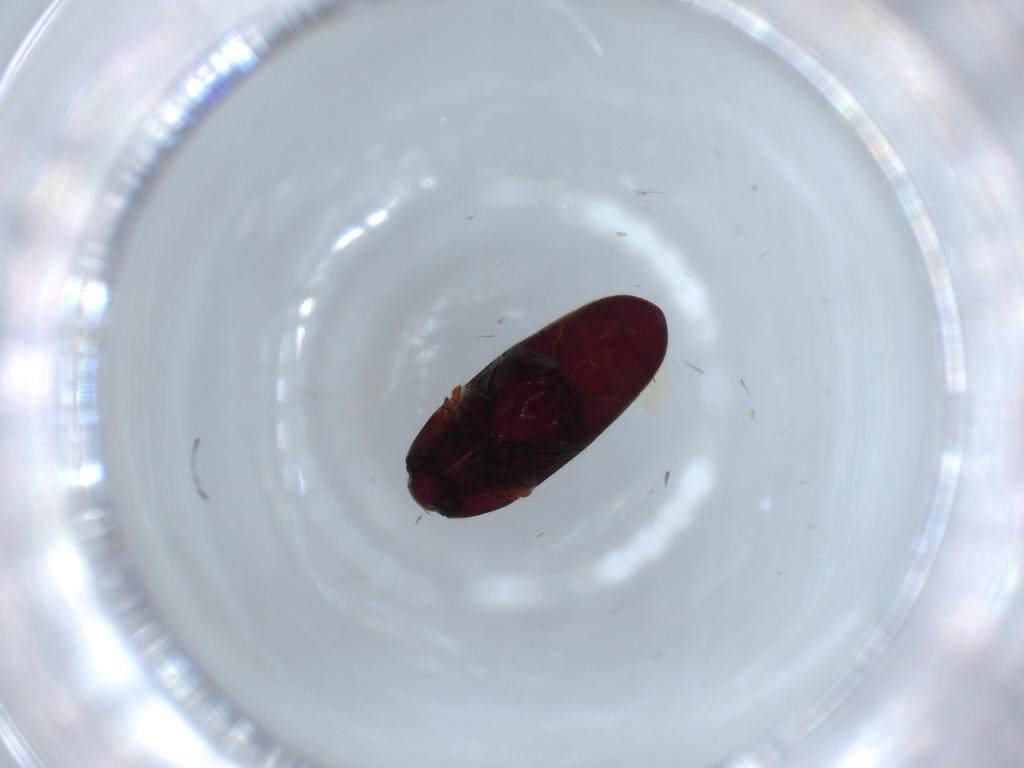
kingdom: Animalia
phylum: Arthropoda
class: Insecta
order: Coleoptera
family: Throscidae
